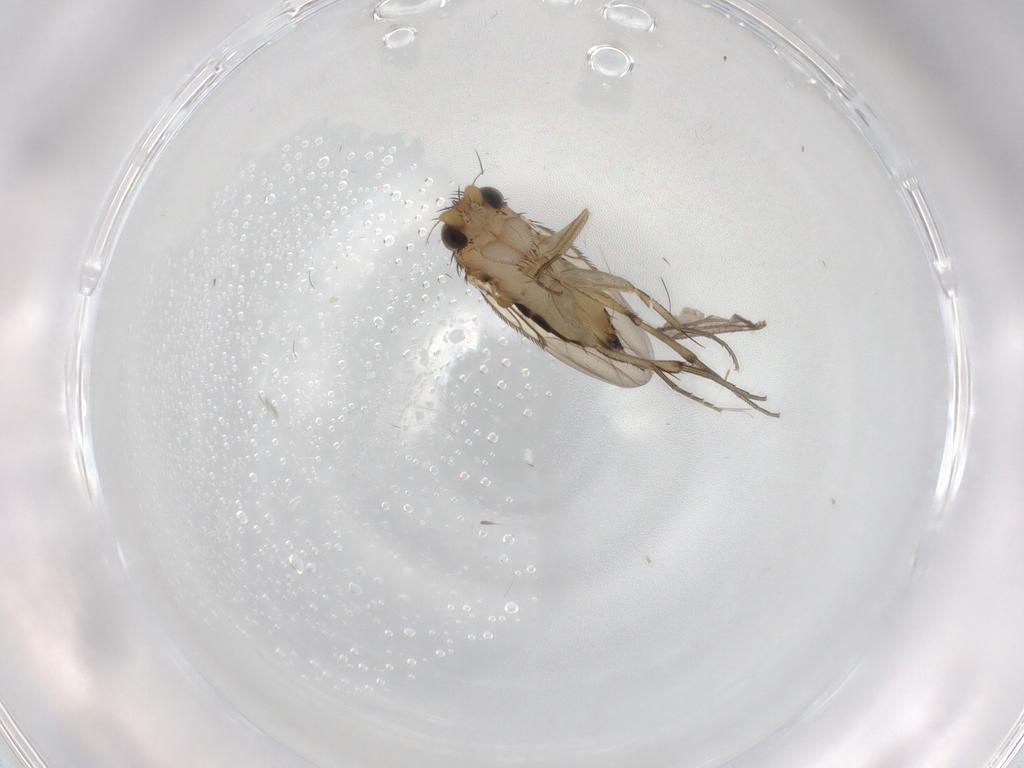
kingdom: Animalia
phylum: Arthropoda
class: Insecta
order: Diptera
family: Phoridae
